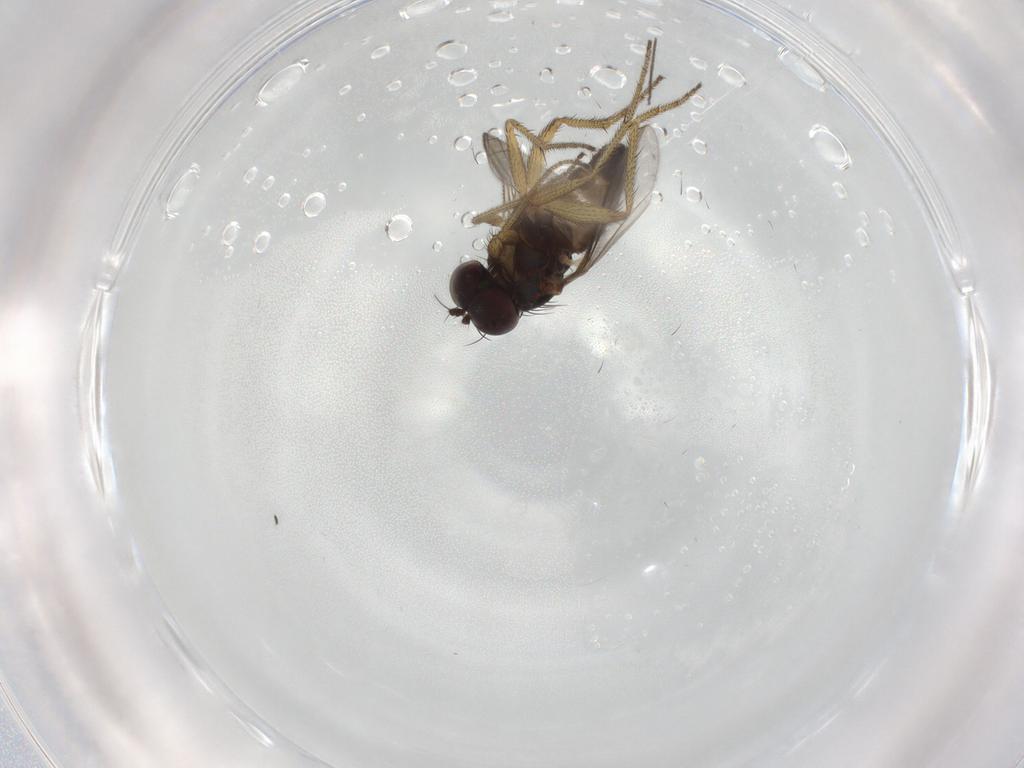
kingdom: Animalia
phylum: Arthropoda
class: Insecta
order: Diptera
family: Chironomidae
